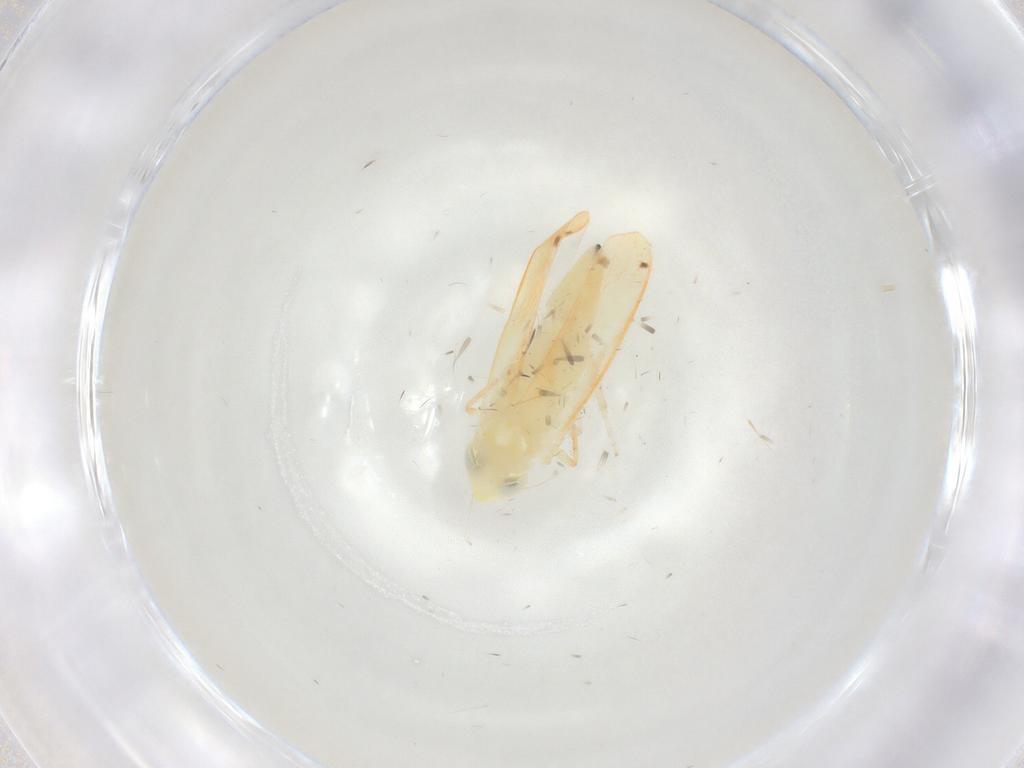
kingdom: Animalia
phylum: Arthropoda
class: Insecta
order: Hemiptera
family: Cicadellidae
